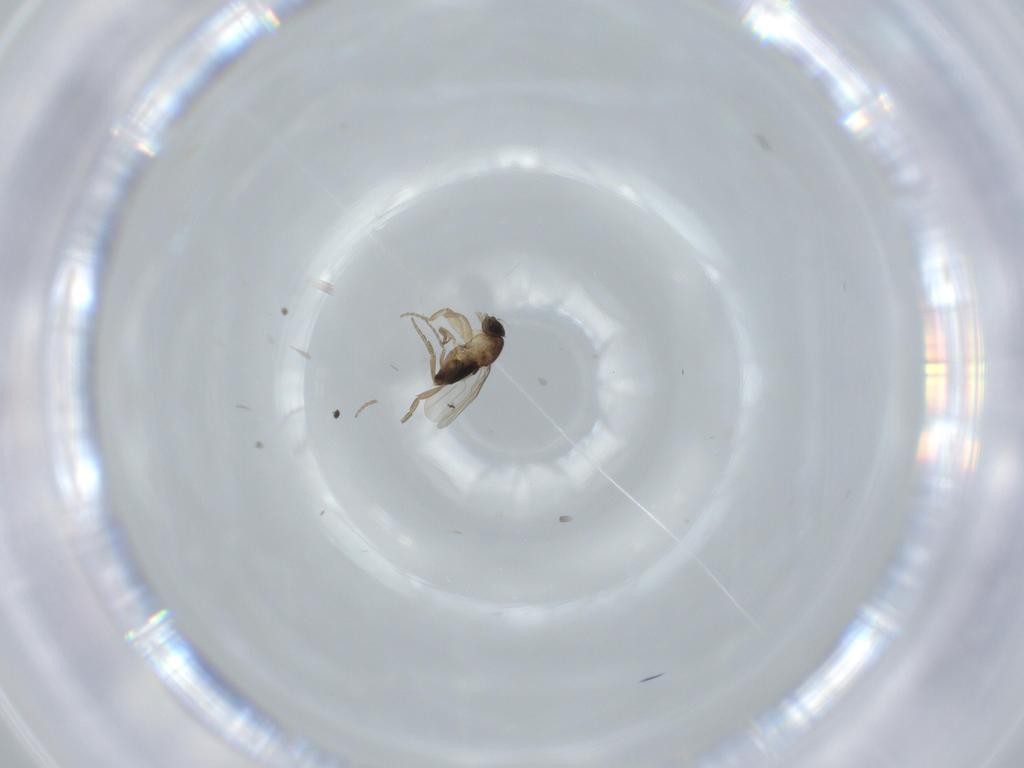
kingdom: Animalia
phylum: Arthropoda
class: Insecta
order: Diptera
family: Phoridae
